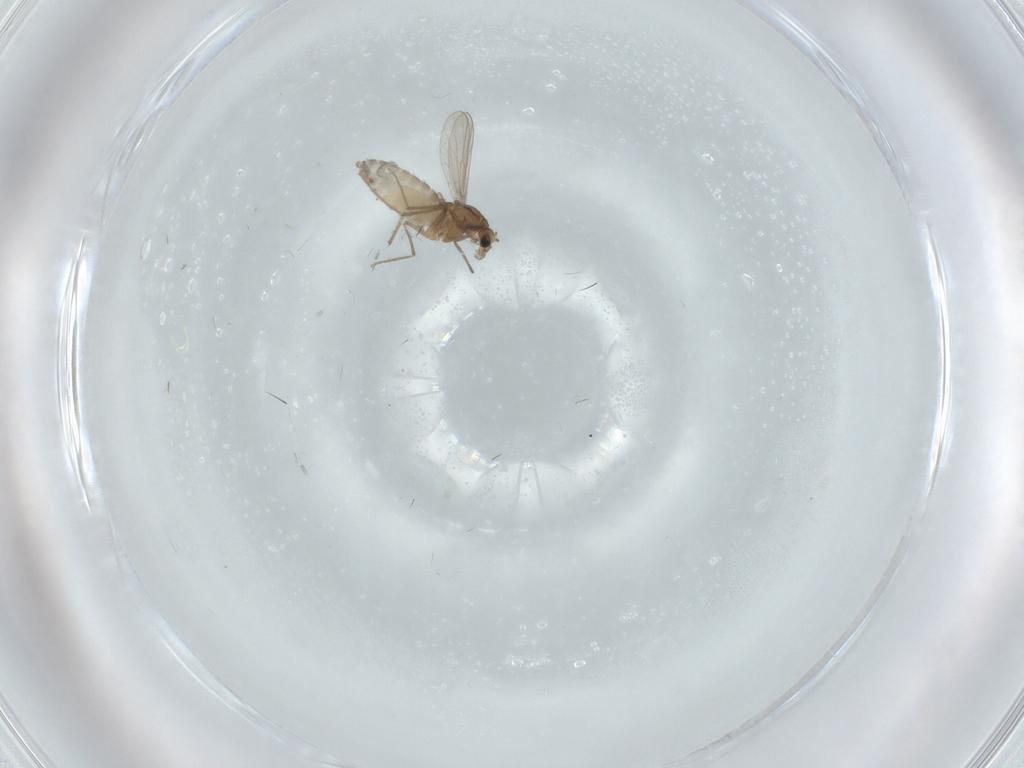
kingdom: Animalia
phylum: Arthropoda
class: Insecta
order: Diptera
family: Chironomidae
